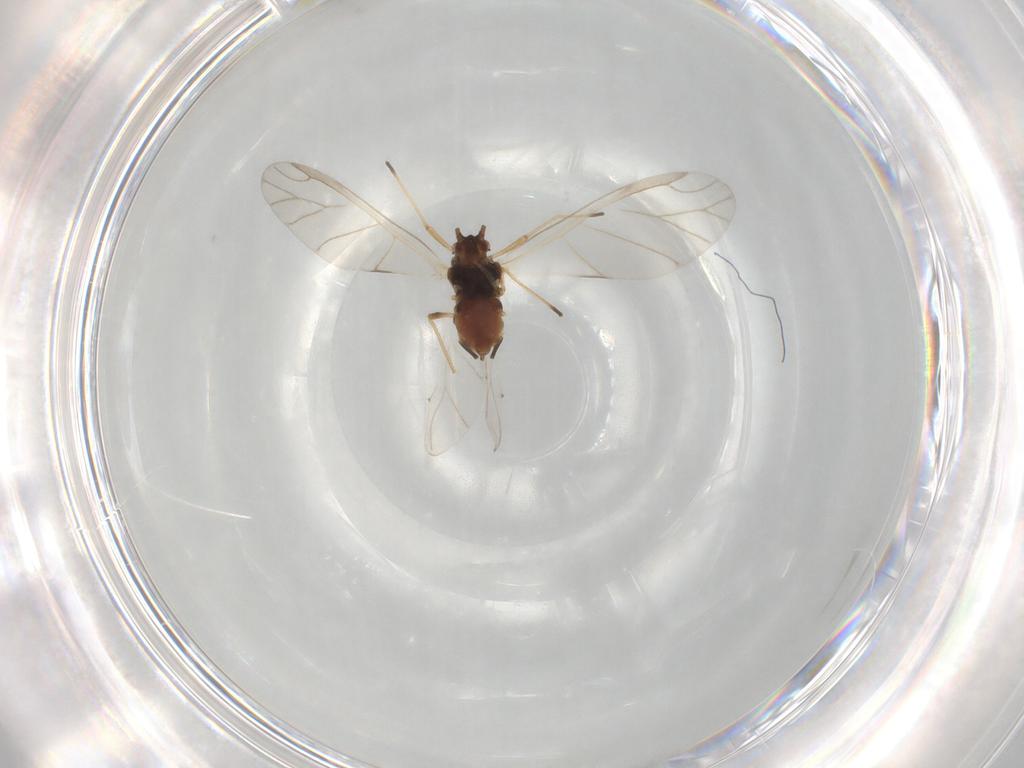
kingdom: Animalia
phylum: Arthropoda
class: Insecta
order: Hemiptera
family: Aphididae
